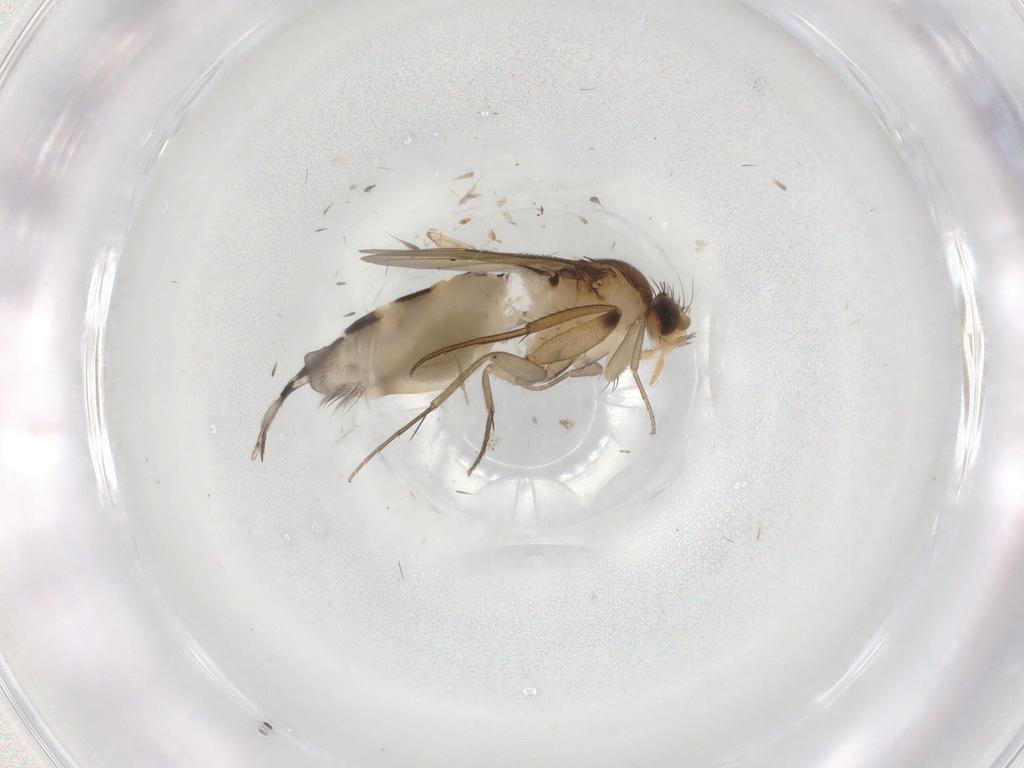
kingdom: Animalia
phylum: Arthropoda
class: Insecta
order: Diptera
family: Phoridae
